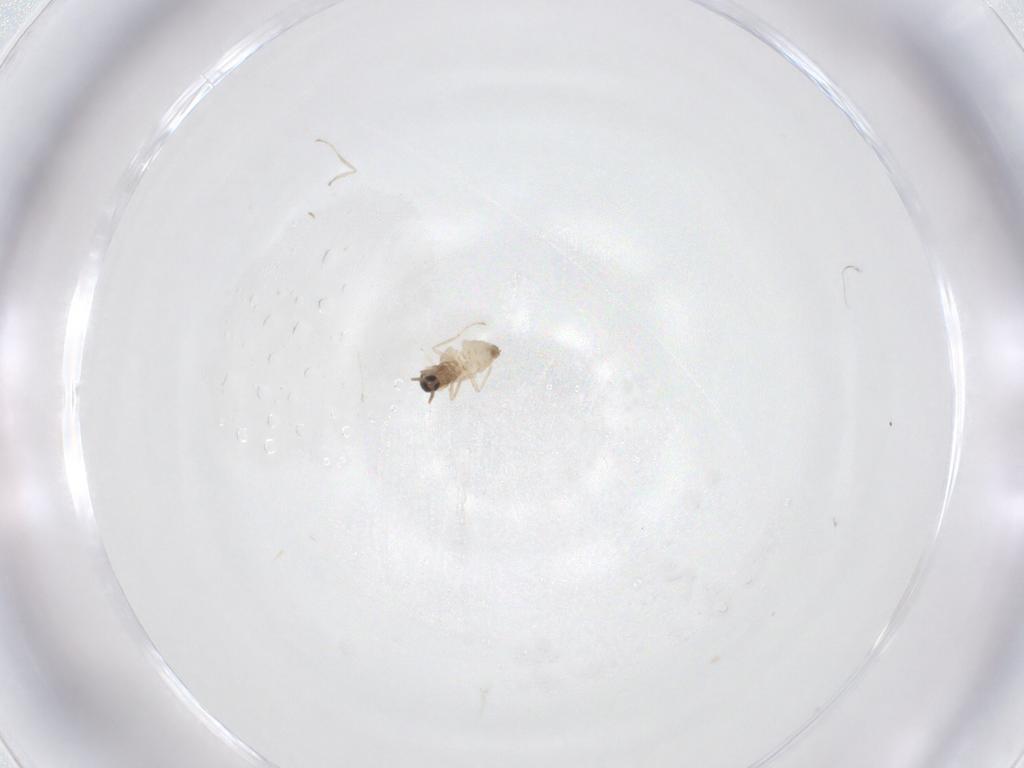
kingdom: Animalia
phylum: Arthropoda
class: Insecta
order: Diptera
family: Cecidomyiidae
